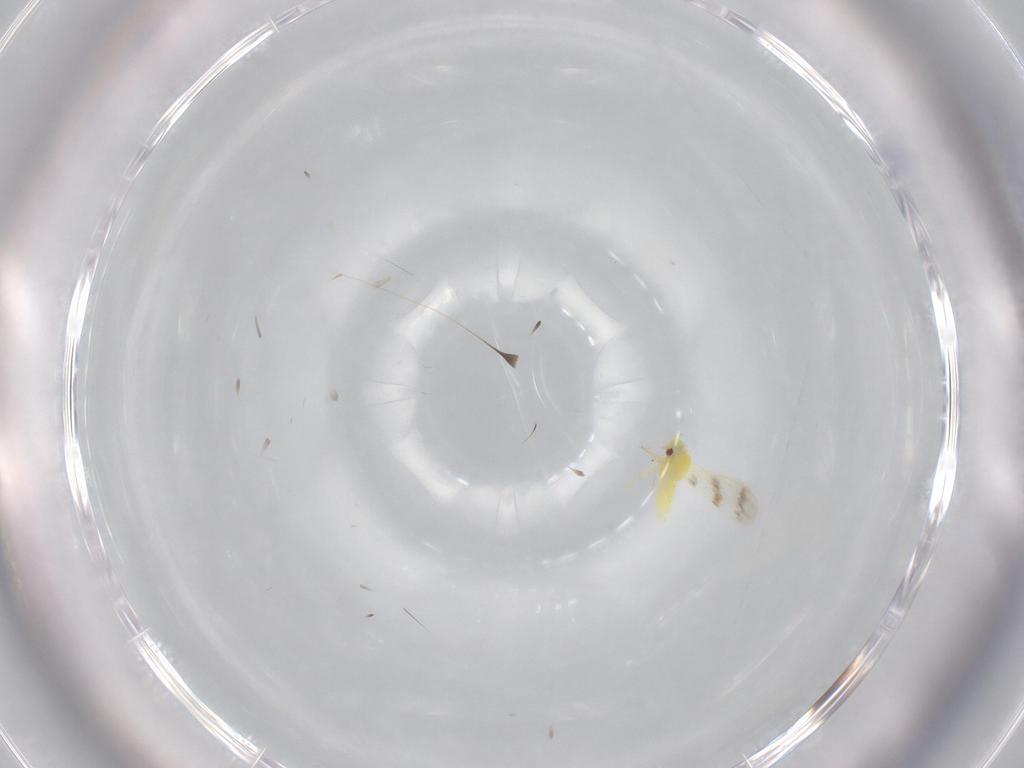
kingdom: Animalia
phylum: Arthropoda
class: Insecta
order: Hemiptera
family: Aleyrodidae
